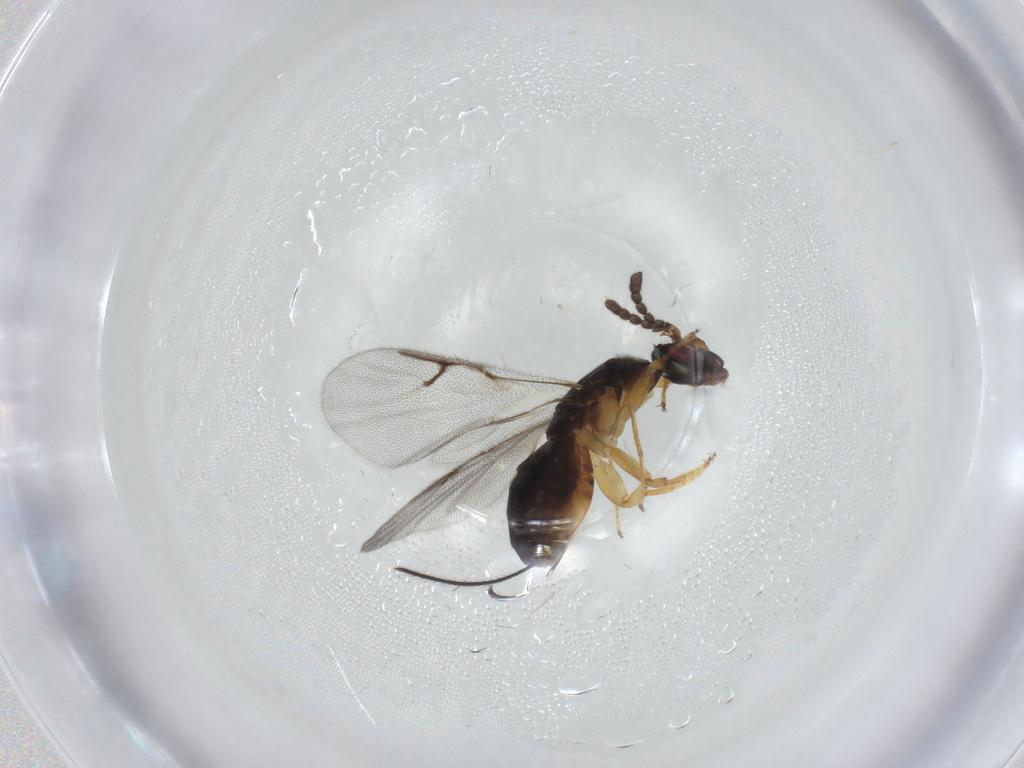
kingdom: Animalia
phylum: Arthropoda
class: Insecta
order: Hymenoptera
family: Agaonidae
